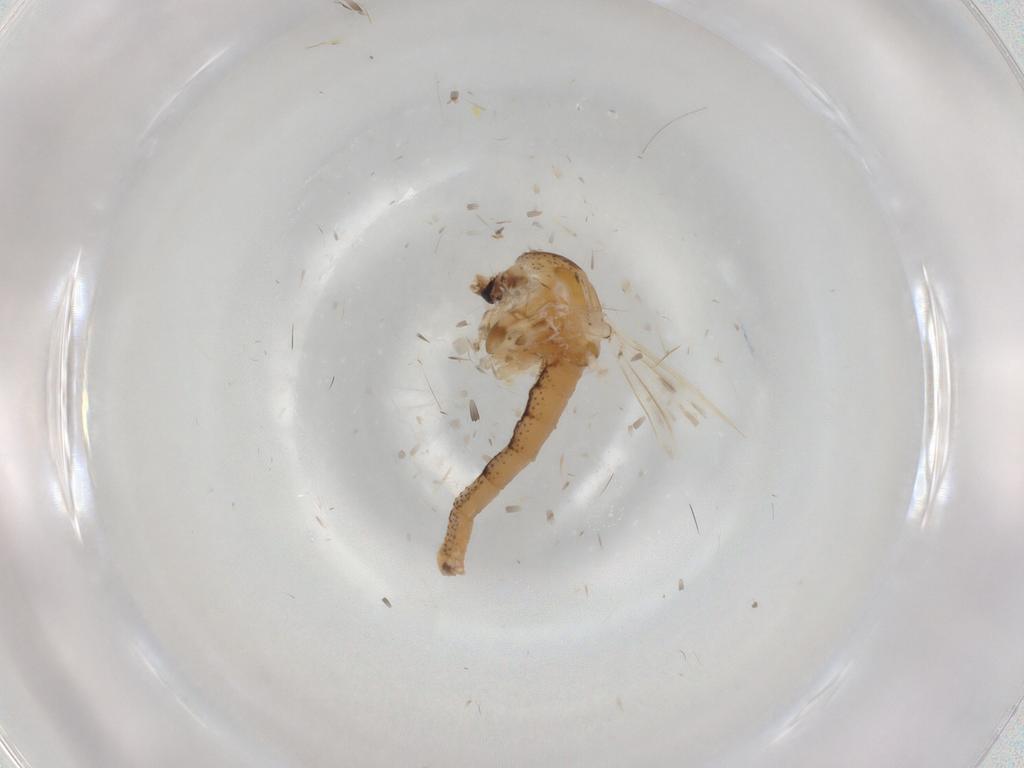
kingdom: Animalia
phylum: Arthropoda
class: Insecta
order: Diptera
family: Chaoboridae
